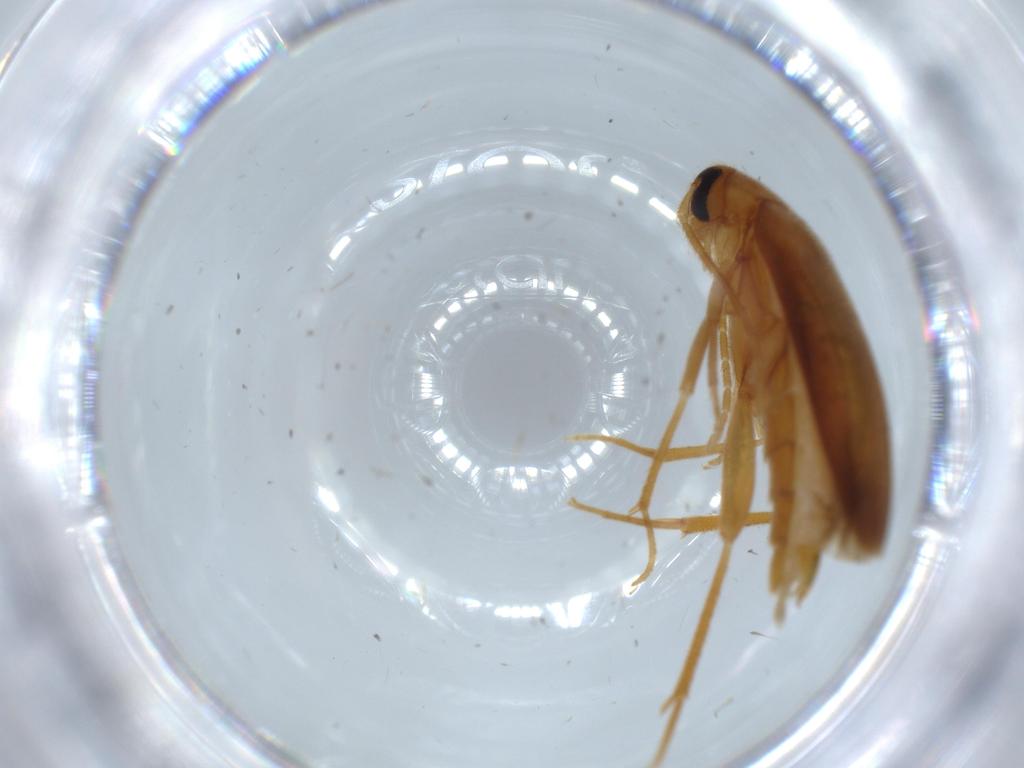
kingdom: Animalia
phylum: Arthropoda
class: Insecta
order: Coleoptera
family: Scraptiidae
